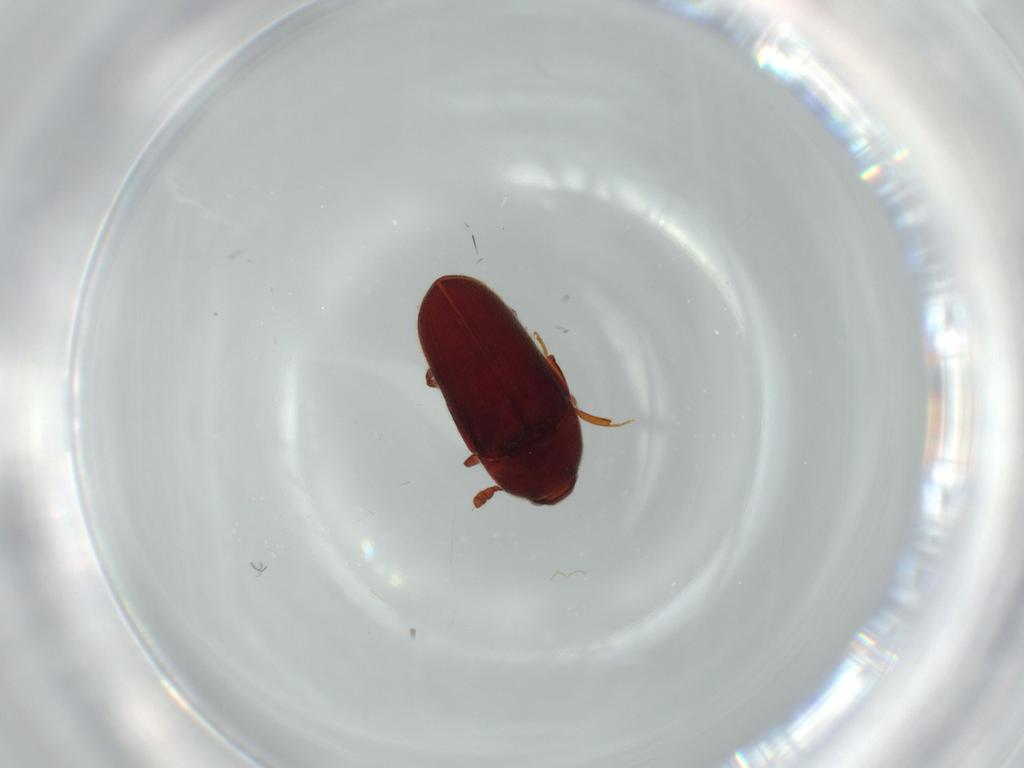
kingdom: Animalia
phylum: Arthropoda
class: Insecta
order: Coleoptera
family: Throscidae
